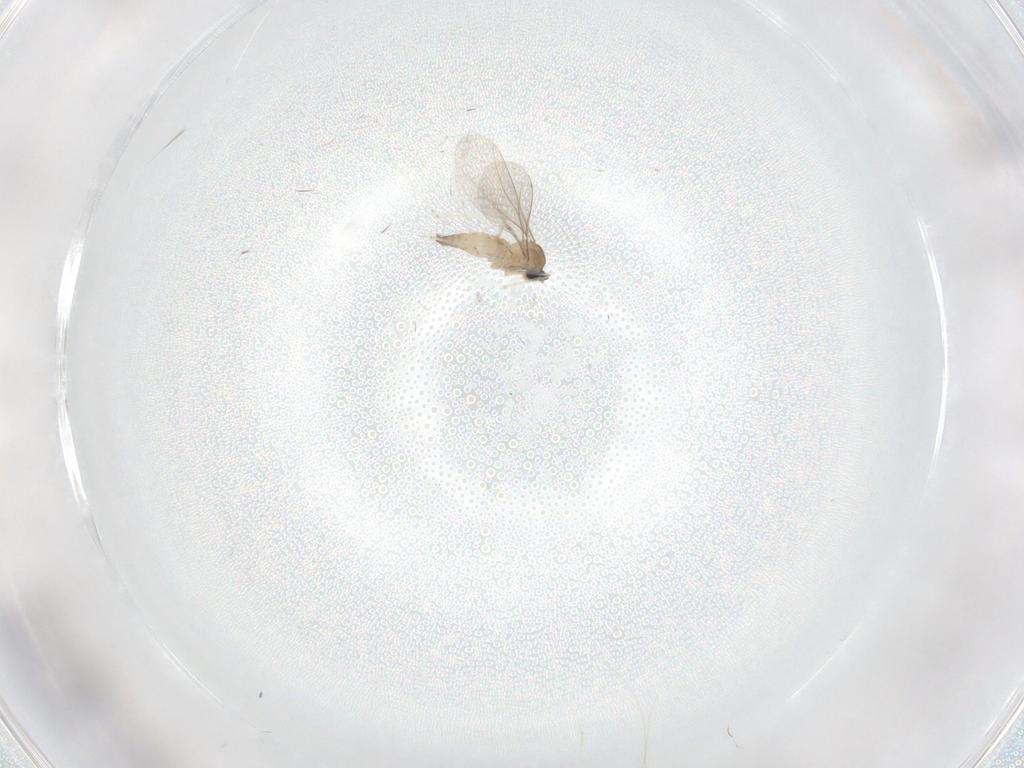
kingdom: Animalia
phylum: Arthropoda
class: Insecta
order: Diptera
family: Cecidomyiidae
